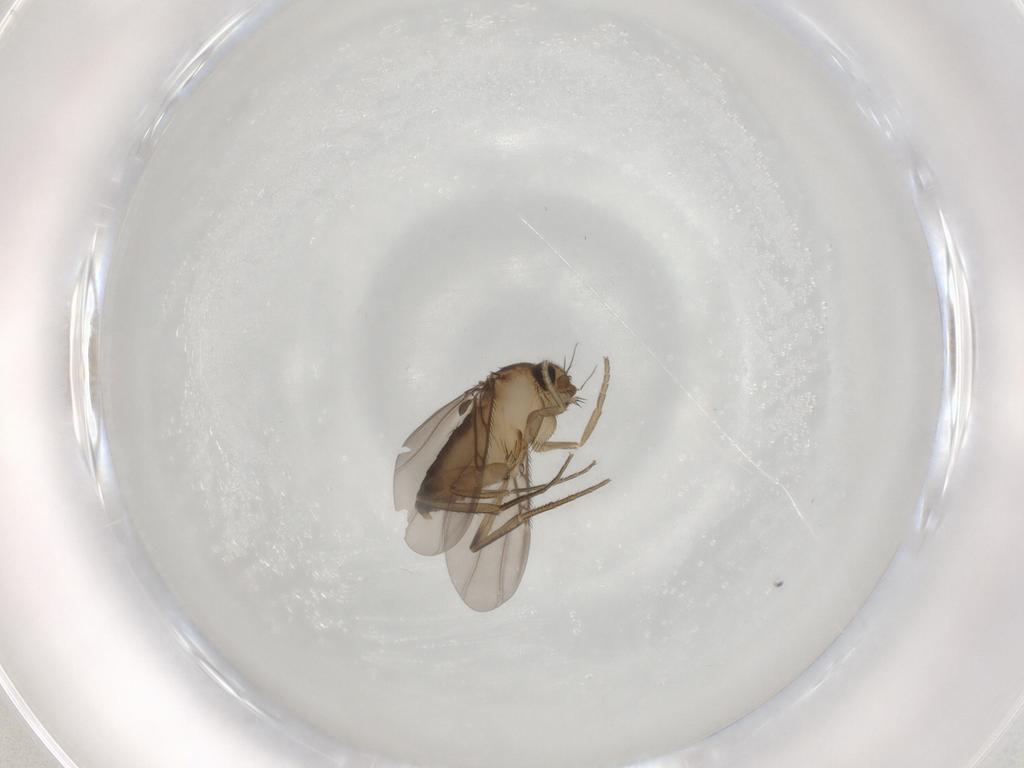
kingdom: Animalia
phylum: Arthropoda
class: Insecta
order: Diptera
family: Phoridae
